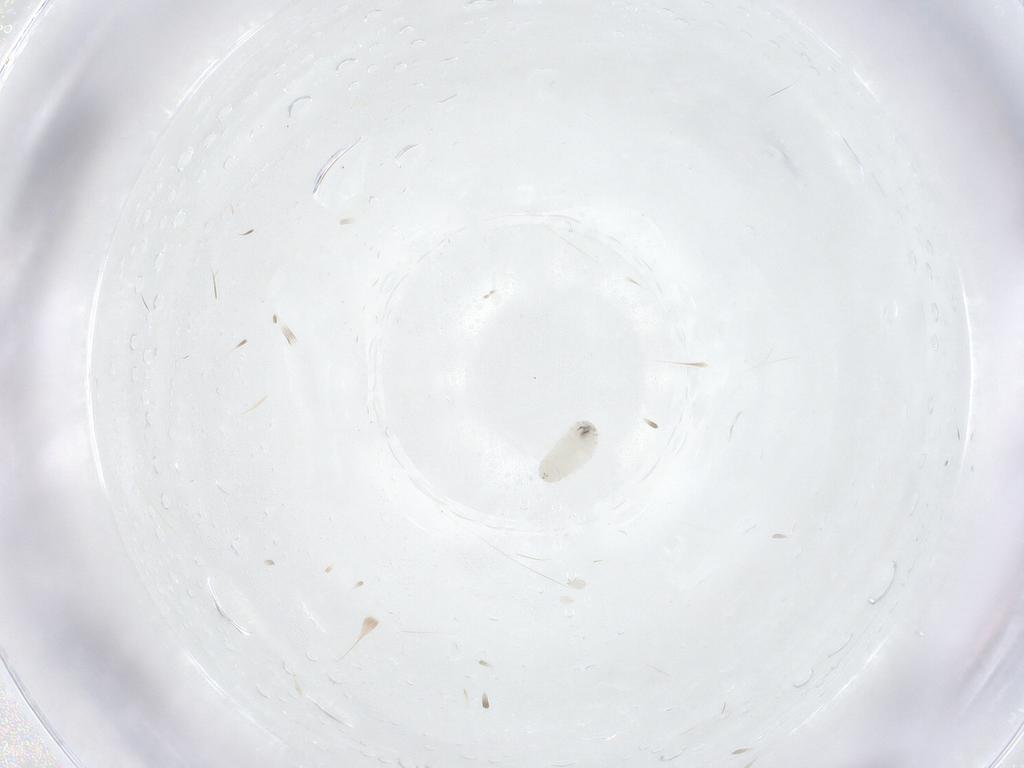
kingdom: Animalia
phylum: Arthropoda
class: Insecta
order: Diptera
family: Tachinidae
